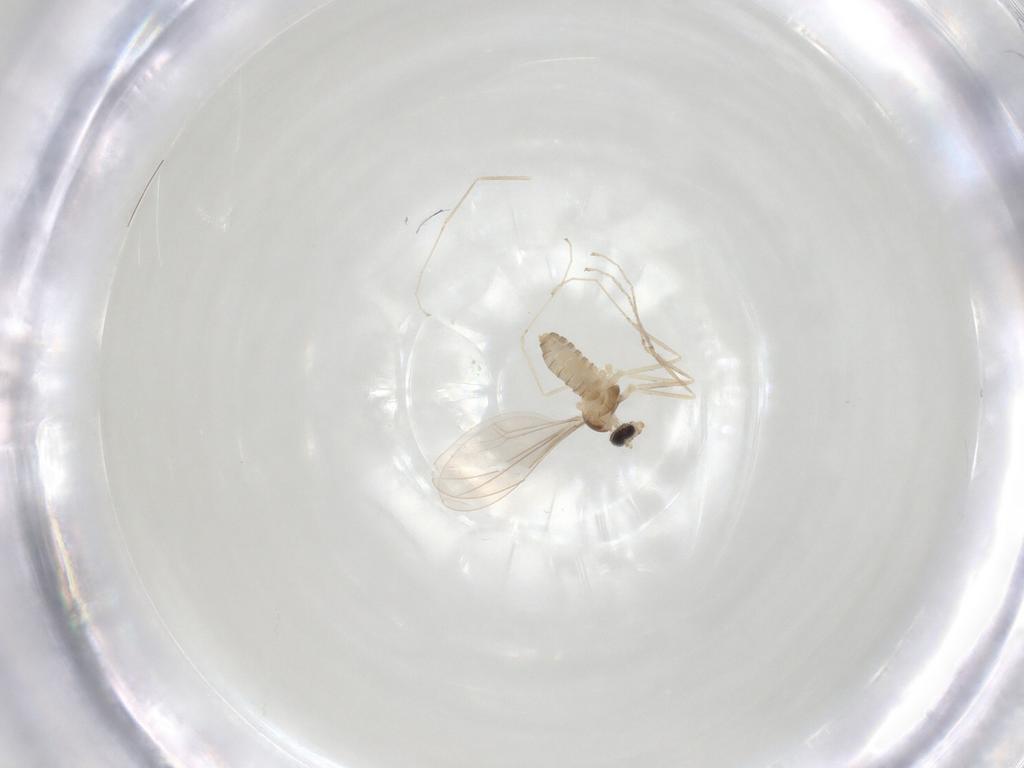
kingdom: Animalia
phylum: Arthropoda
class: Insecta
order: Diptera
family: Cecidomyiidae
